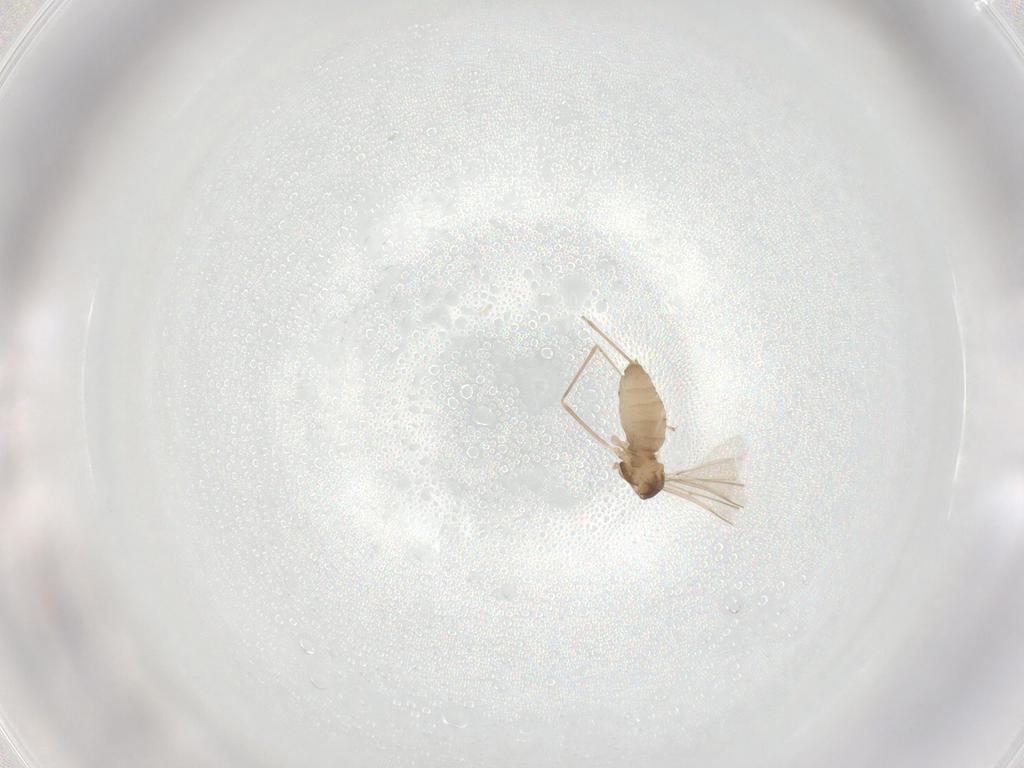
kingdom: Animalia
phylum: Arthropoda
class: Insecta
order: Diptera
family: Cecidomyiidae
